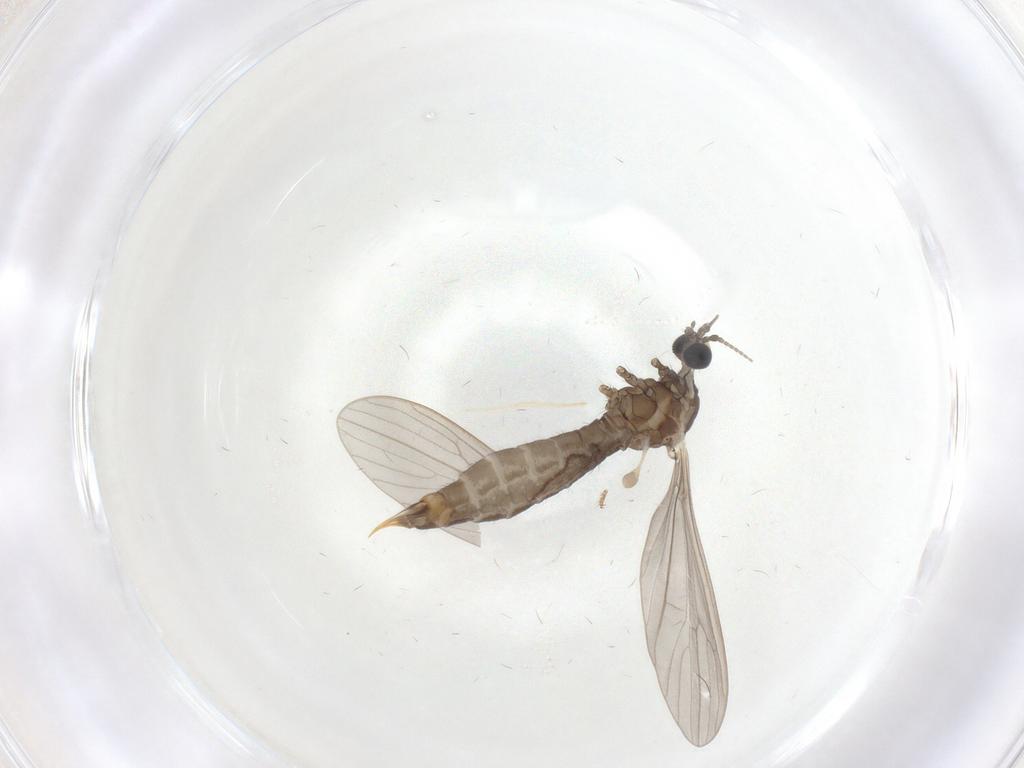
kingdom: Animalia
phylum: Arthropoda
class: Insecta
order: Diptera
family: Limoniidae
